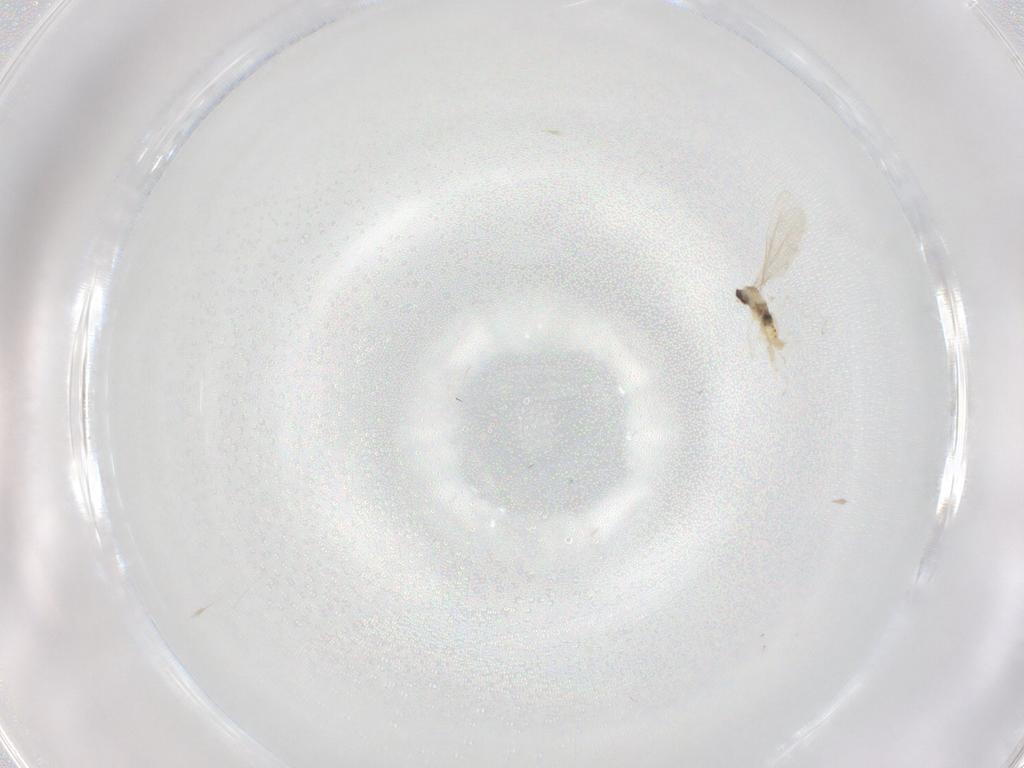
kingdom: Animalia
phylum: Arthropoda
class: Insecta
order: Diptera
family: Cecidomyiidae
